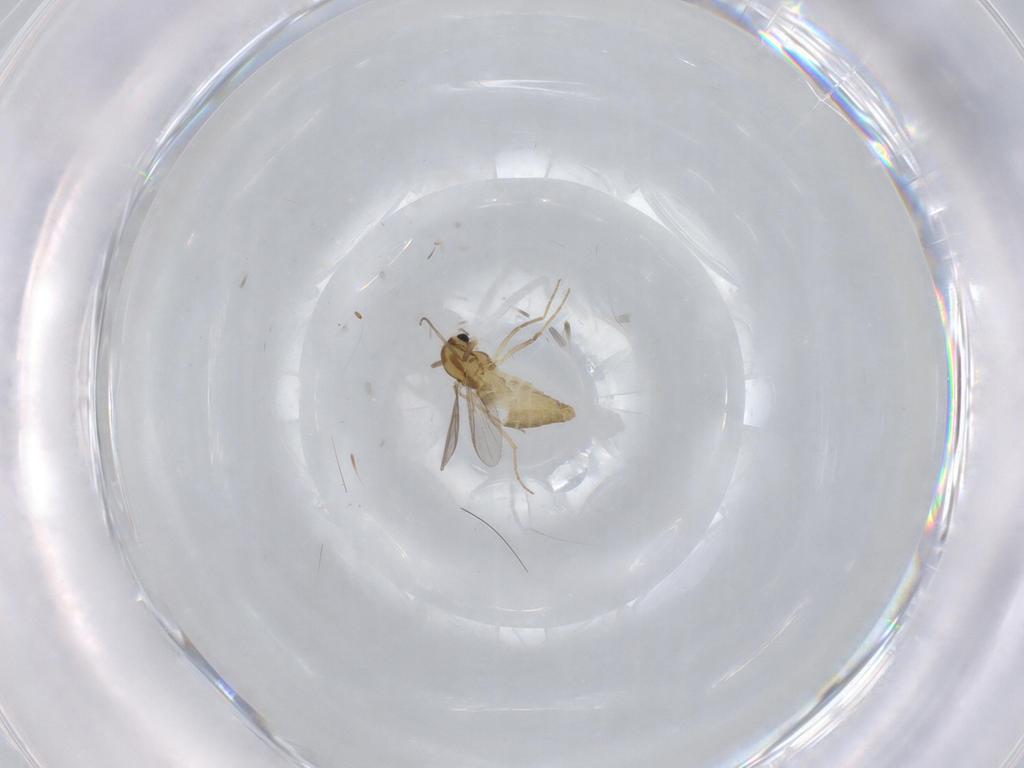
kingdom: Animalia
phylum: Arthropoda
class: Insecta
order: Diptera
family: Chironomidae
